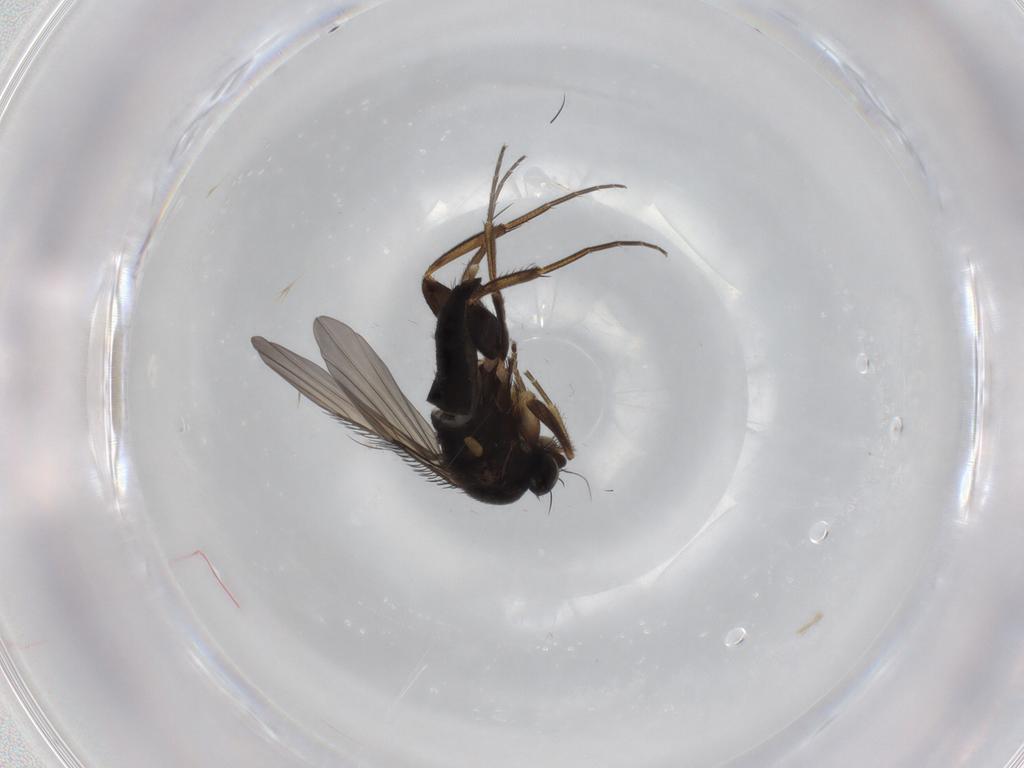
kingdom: Animalia
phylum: Arthropoda
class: Insecta
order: Diptera
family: Phoridae
